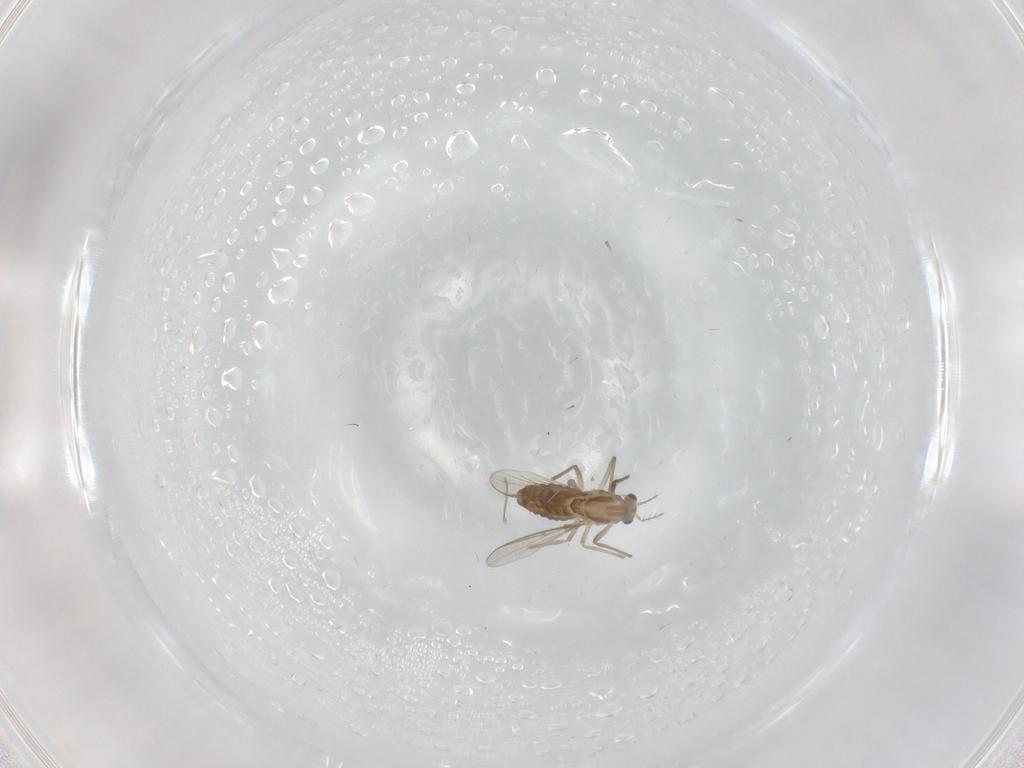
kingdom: Animalia
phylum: Arthropoda
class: Insecta
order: Diptera
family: Chironomidae
